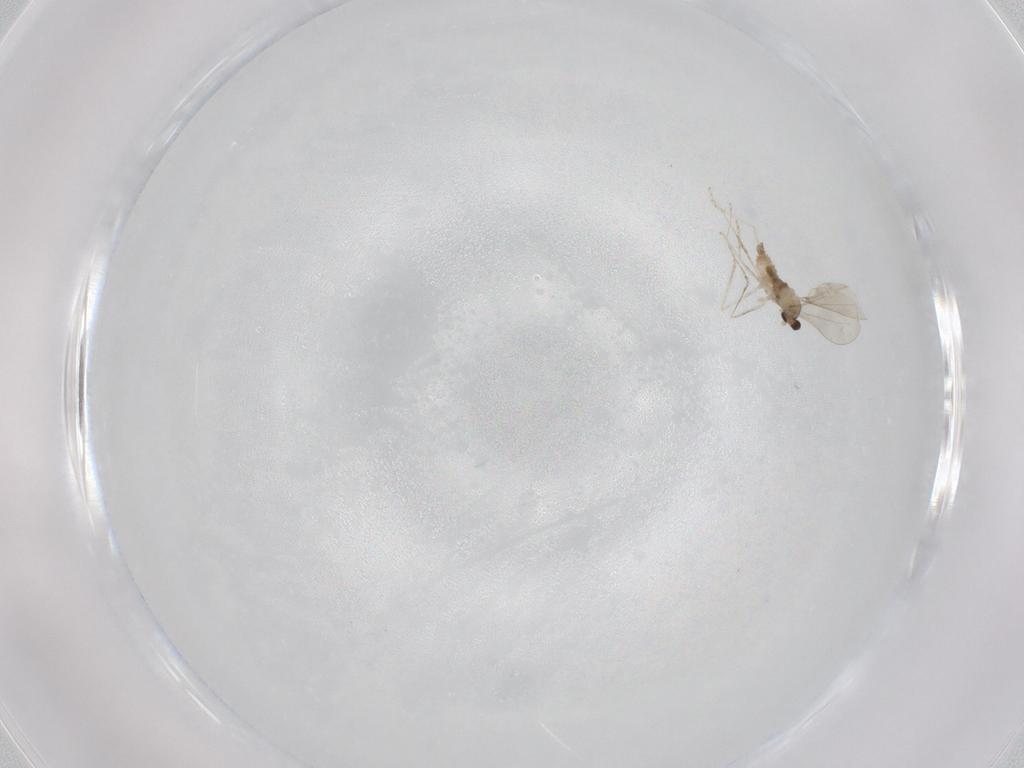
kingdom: Animalia
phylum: Arthropoda
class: Insecta
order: Diptera
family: Cecidomyiidae
